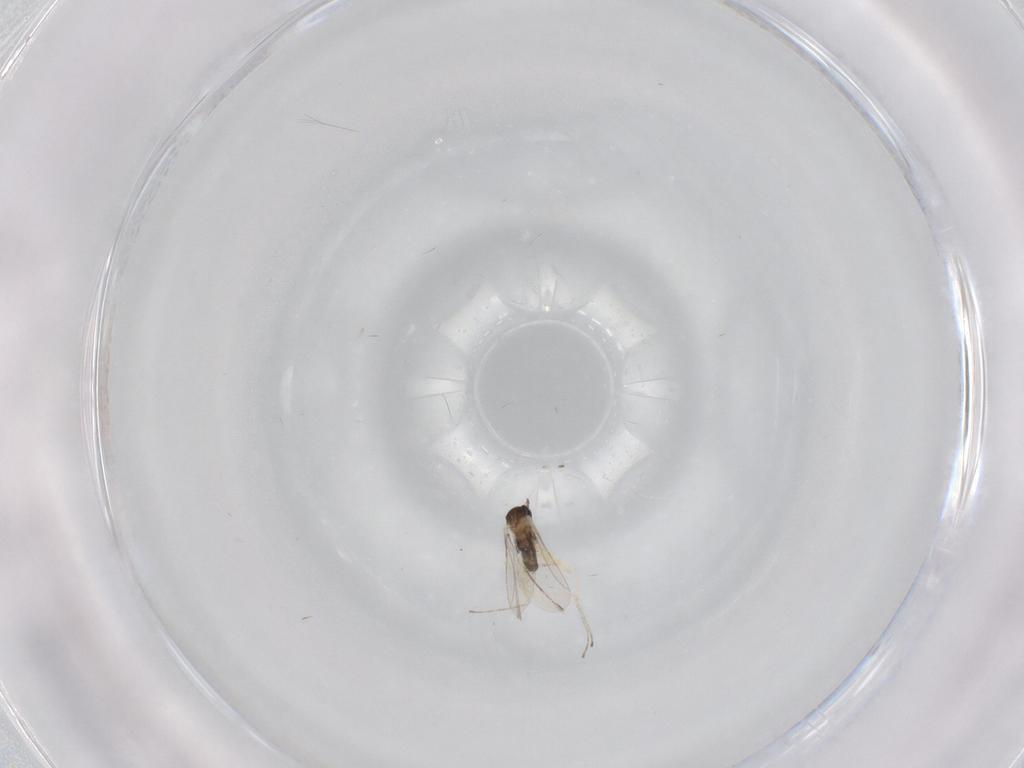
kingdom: Animalia
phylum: Arthropoda
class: Insecta
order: Diptera
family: Cecidomyiidae
